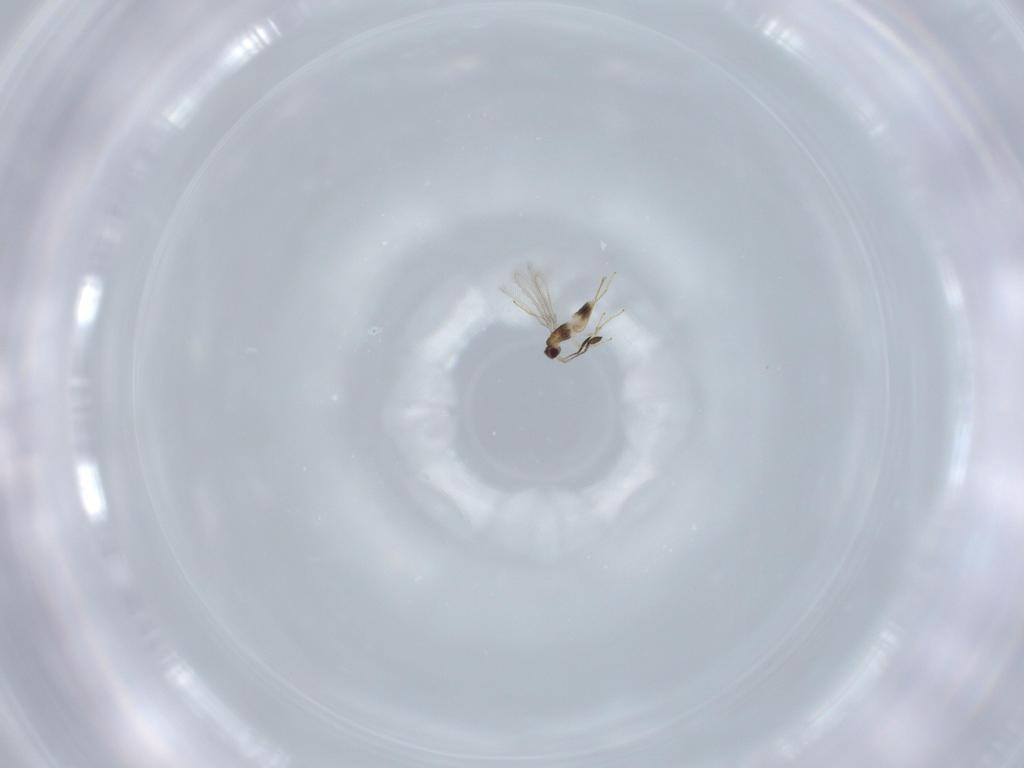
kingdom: Animalia
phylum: Arthropoda
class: Insecta
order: Hymenoptera
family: Mymaridae
